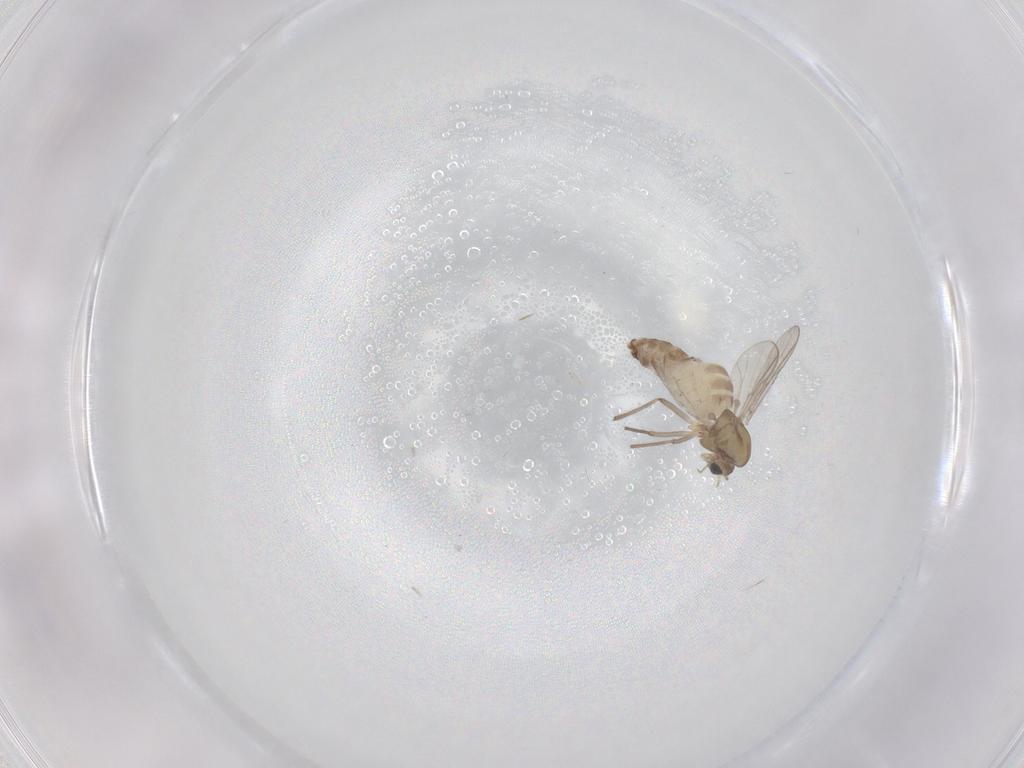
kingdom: Animalia
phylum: Arthropoda
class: Insecta
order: Diptera
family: Chironomidae
